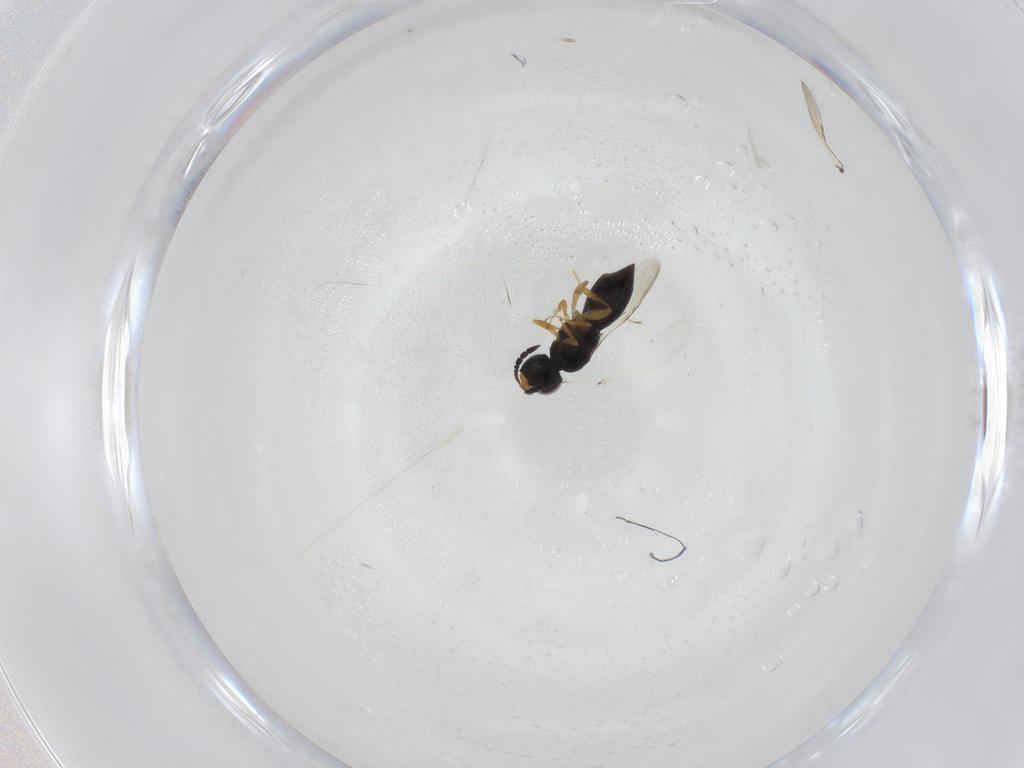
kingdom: Animalia
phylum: Arthropoda
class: Insecta
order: Hymenoptera
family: Ceraphronidae
